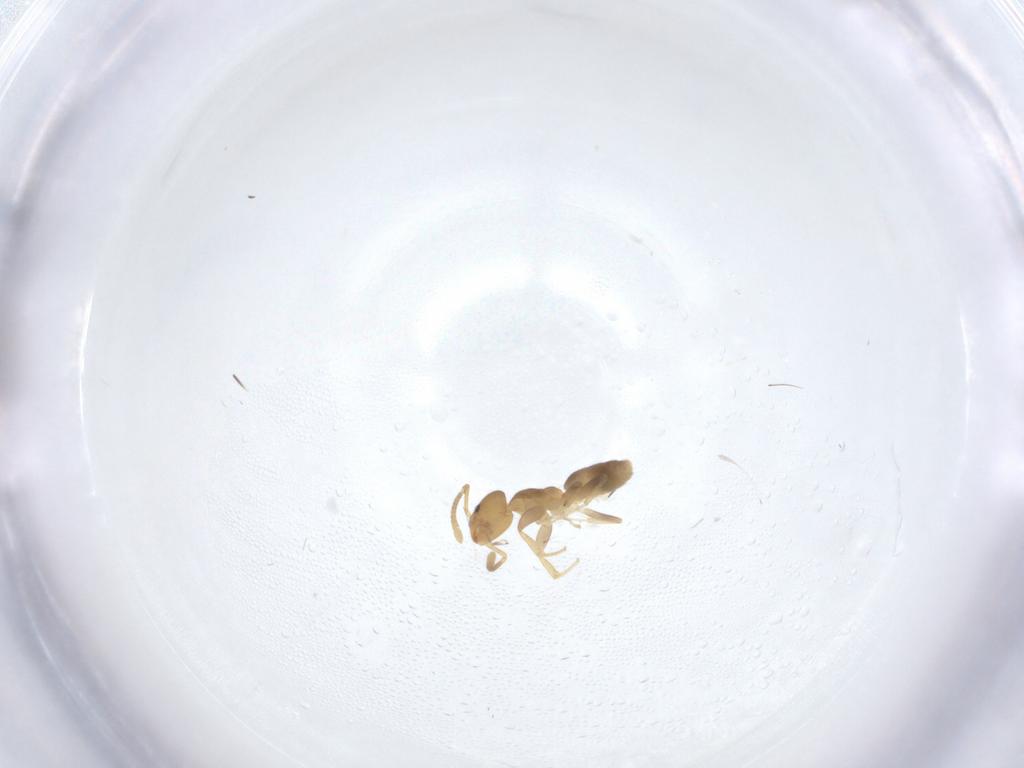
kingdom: Animalia
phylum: Arthropoda
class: Insecta
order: Hymenoptera
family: Formicidae
